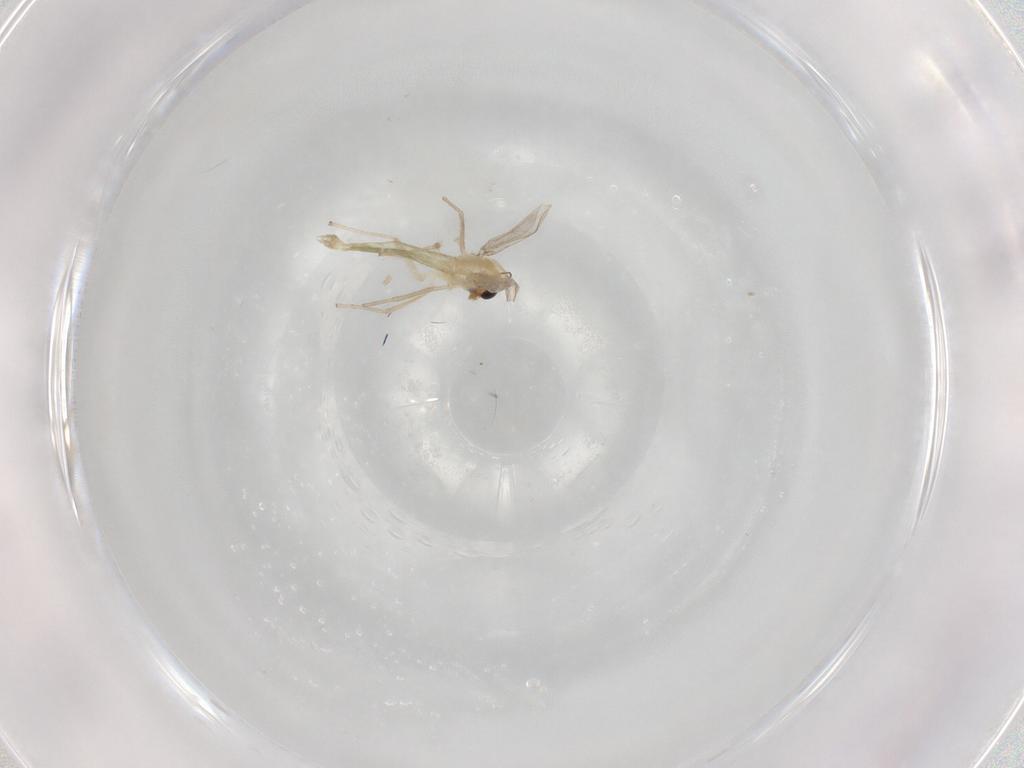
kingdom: Animalia
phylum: Arthropoda
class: Insecta
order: Diptera
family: Chironomidae
